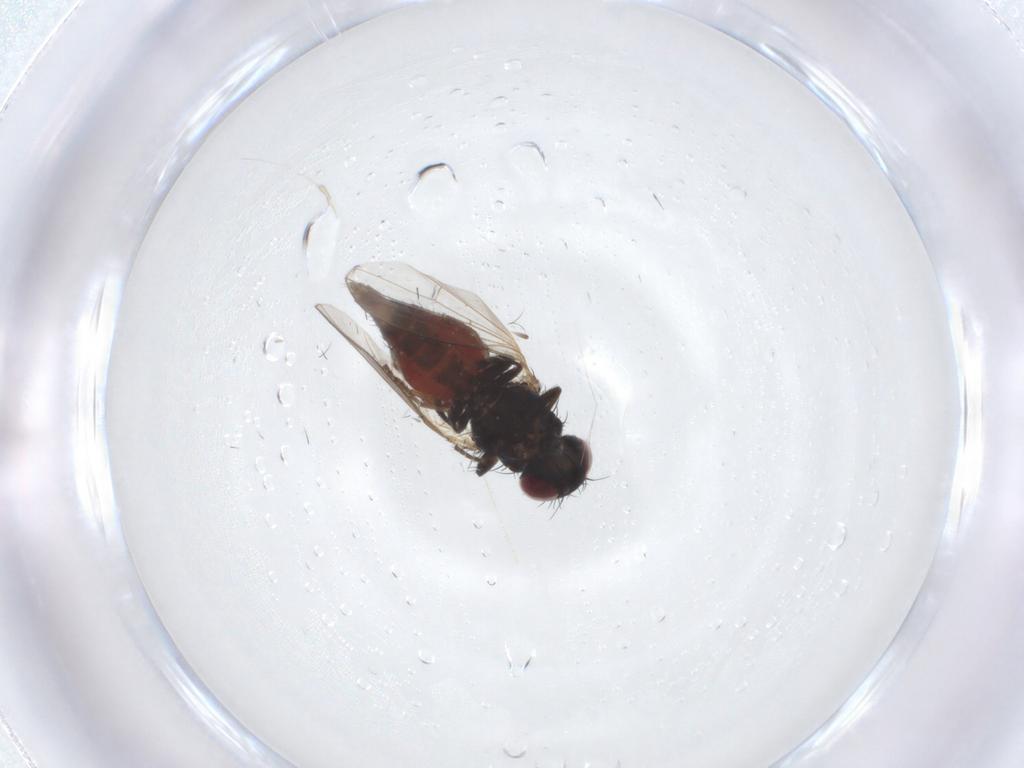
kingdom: Animalia
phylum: Arthropoda
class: Insecta
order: Diptera
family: Carnidae
